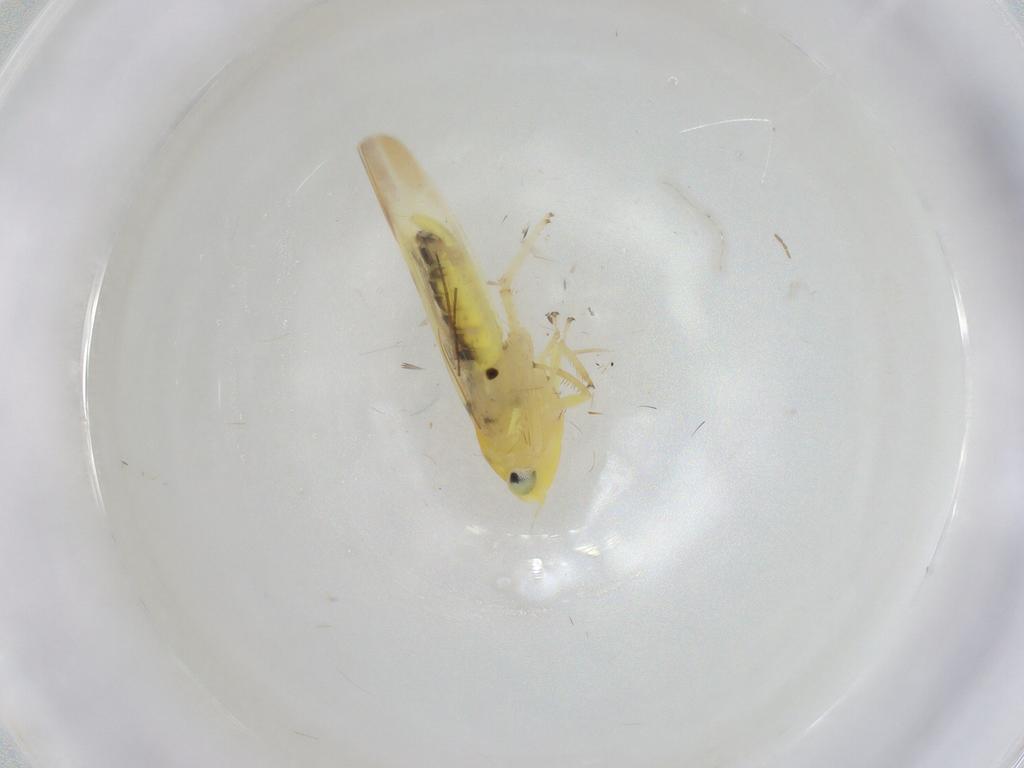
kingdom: Animalia
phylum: Arthropoda
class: Insecta
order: Hemiptera
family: Cicadellidae
